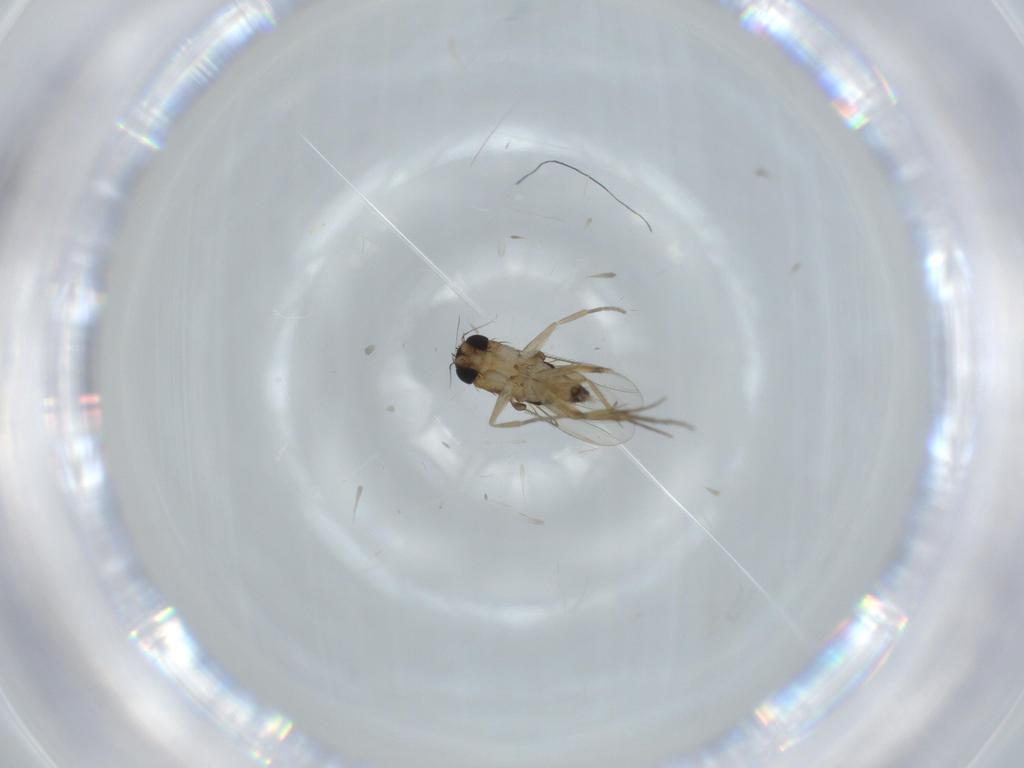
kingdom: Animalia
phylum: Arthropoda
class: Insecta
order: Diptera
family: Phoridae
